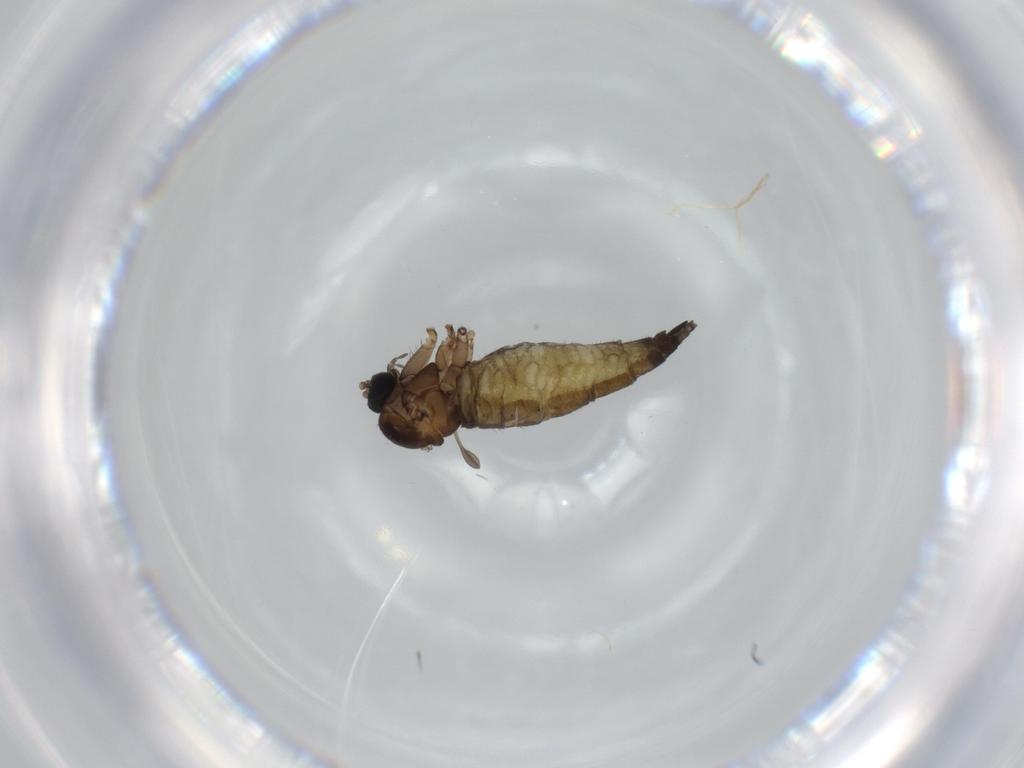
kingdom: Animalia
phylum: Arthropoda
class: Insecta
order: Diptera
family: Sciaridae
